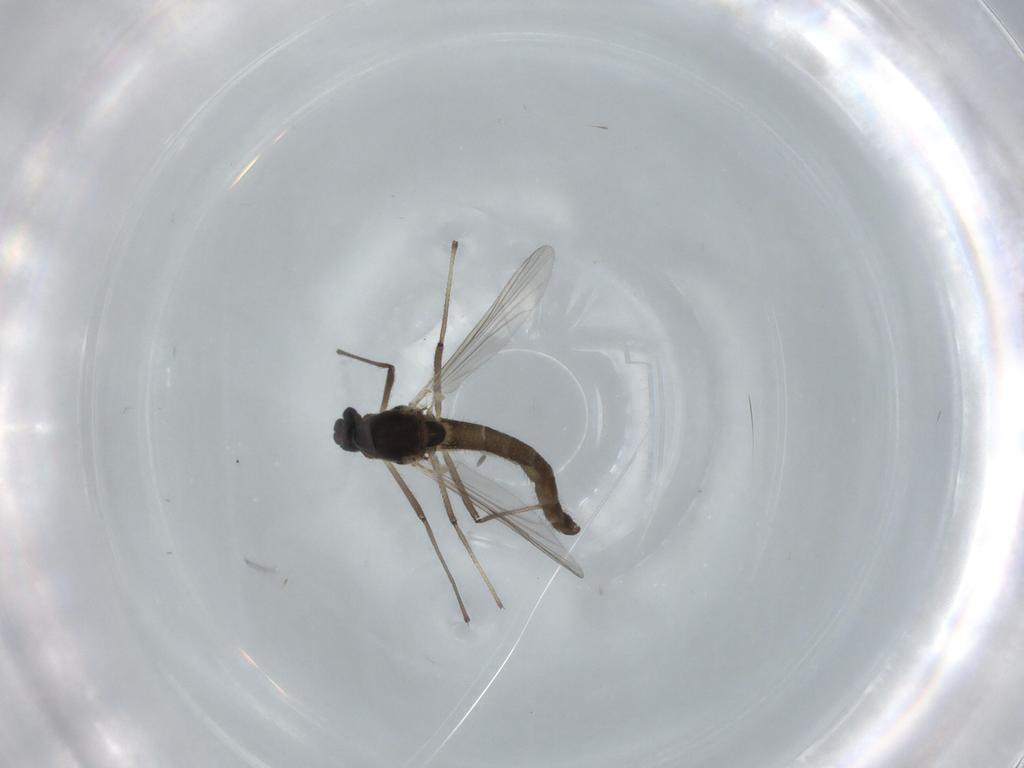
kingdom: Animalia
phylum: Arthropoda
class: Insecta
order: Diptera
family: Chironomidae
